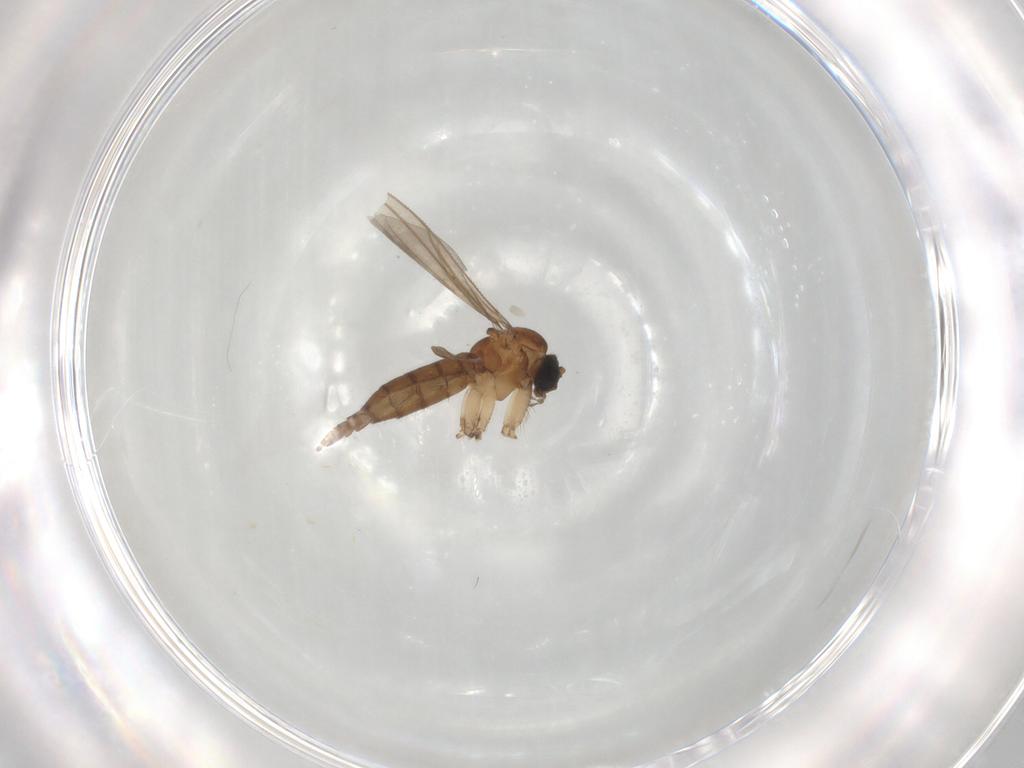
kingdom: Animalia
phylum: Arthropoda
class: Insecta
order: Diptera
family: Sciaridae
